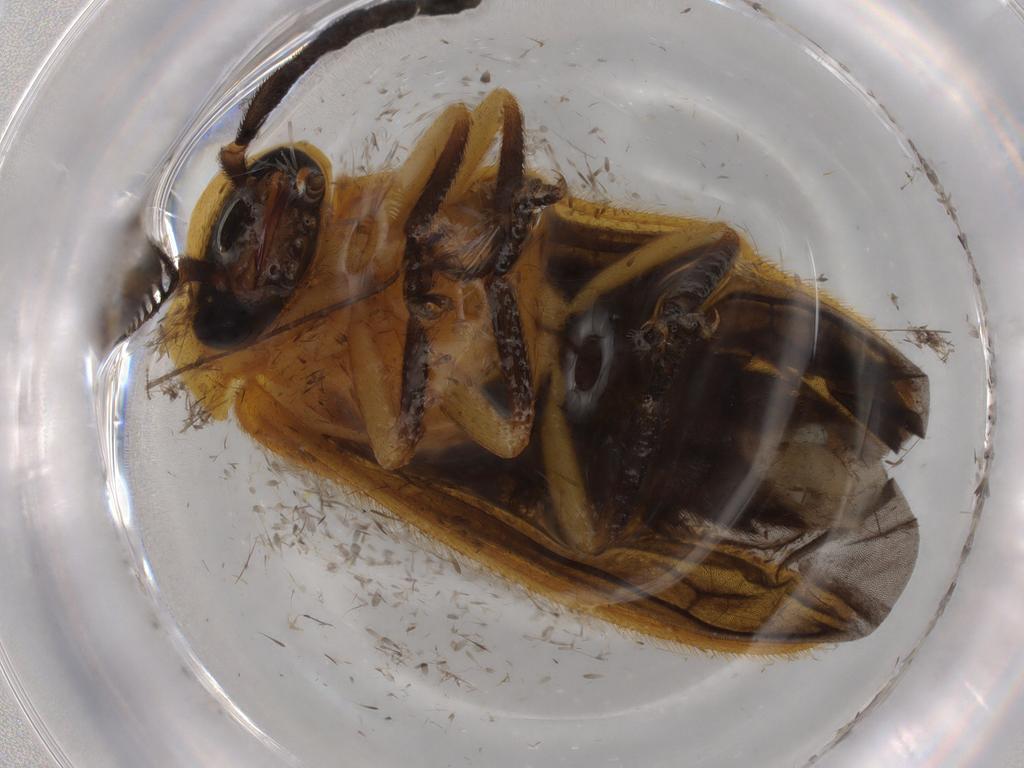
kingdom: Animalia
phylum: Arthropoda
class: Insecta
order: Coleoptera
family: Lampyridae
